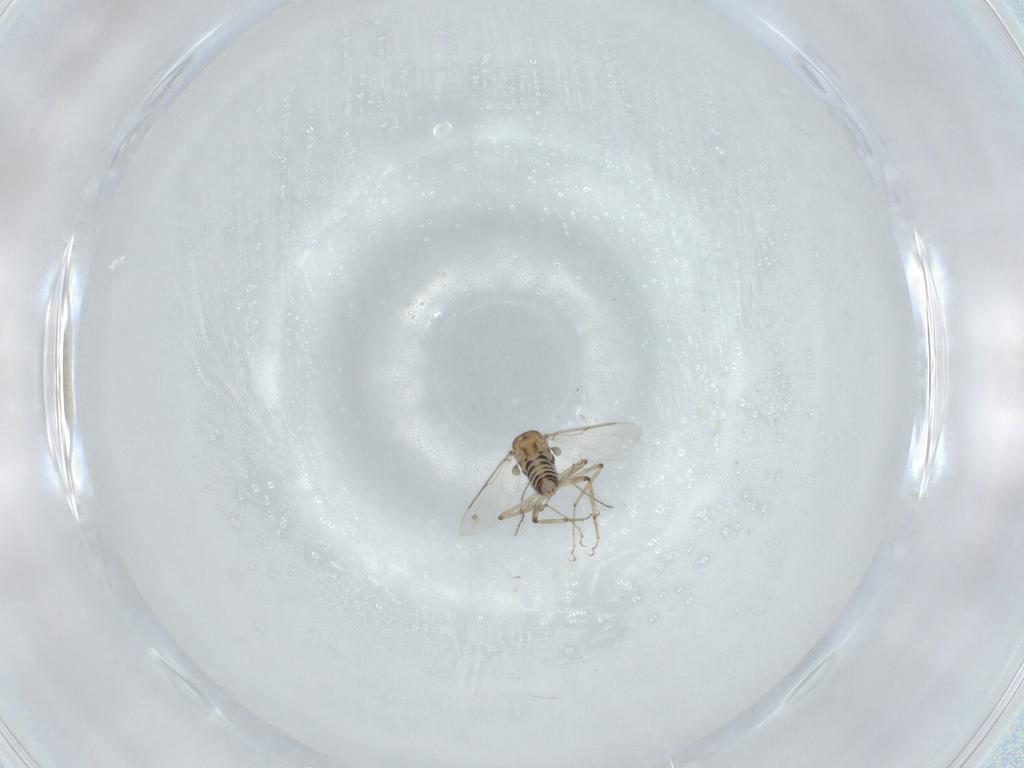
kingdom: Animalia
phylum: Arthropoda
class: Insecta
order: Diptera
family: Ceratopogonidae
